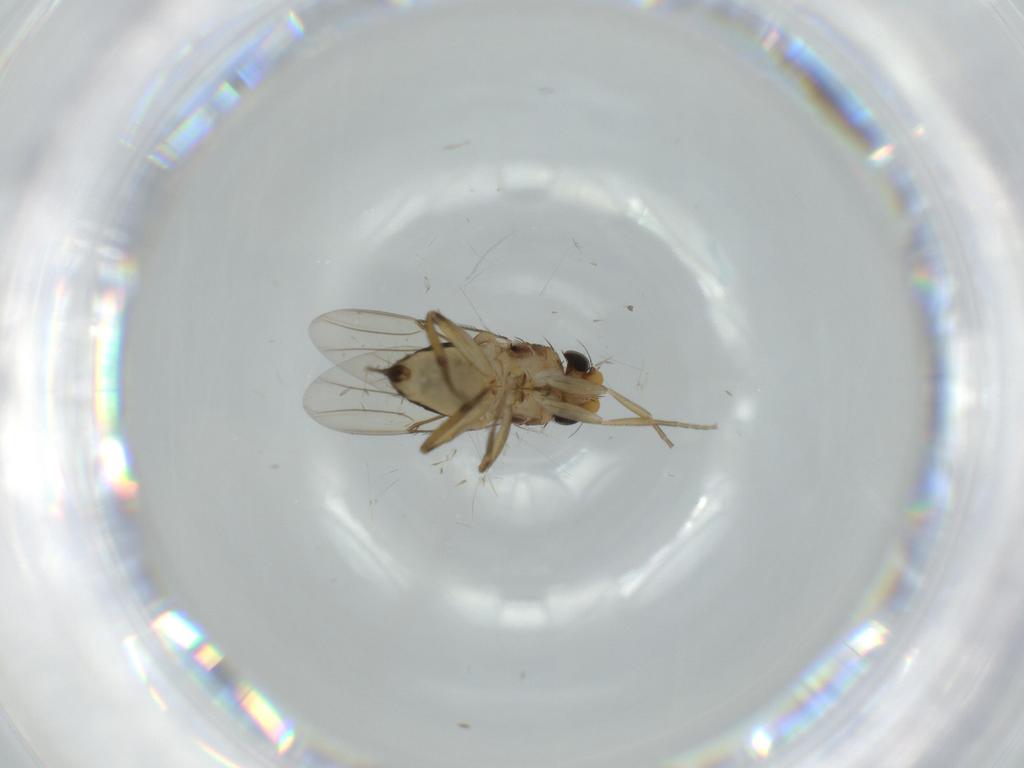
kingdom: Animalia
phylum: Arthropoda
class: Insecta
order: Diptera
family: Cecidomyiidae
